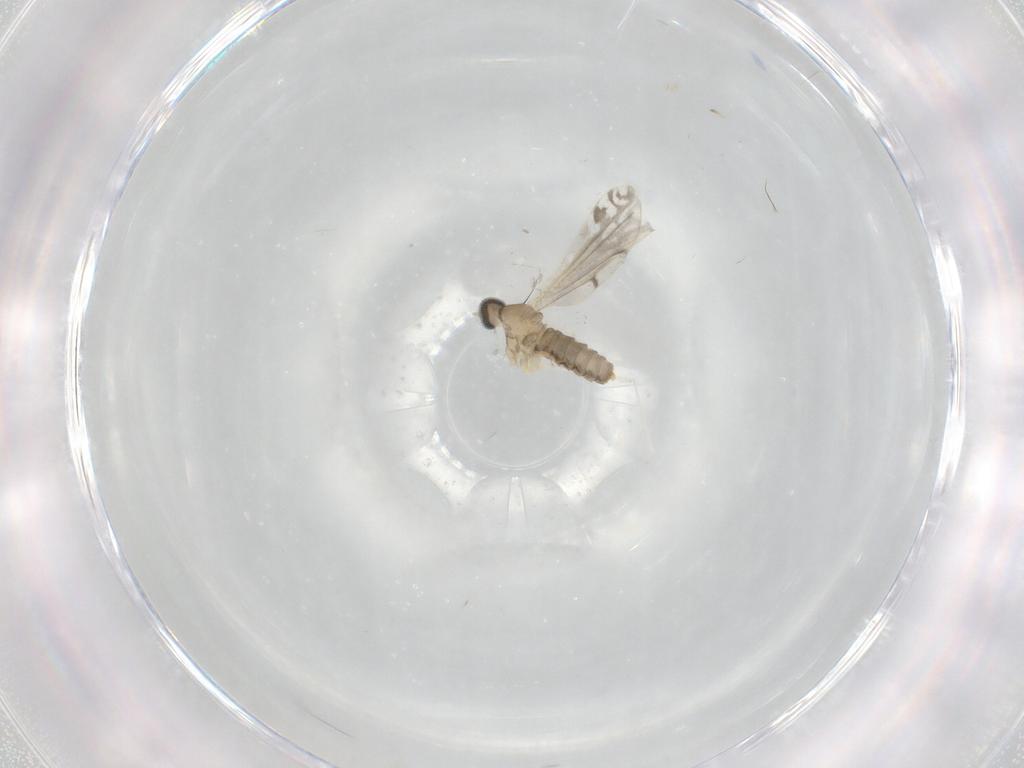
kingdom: Animalia
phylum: Arthropoda
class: Insecta
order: Diptera
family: Cecidomyiidae
